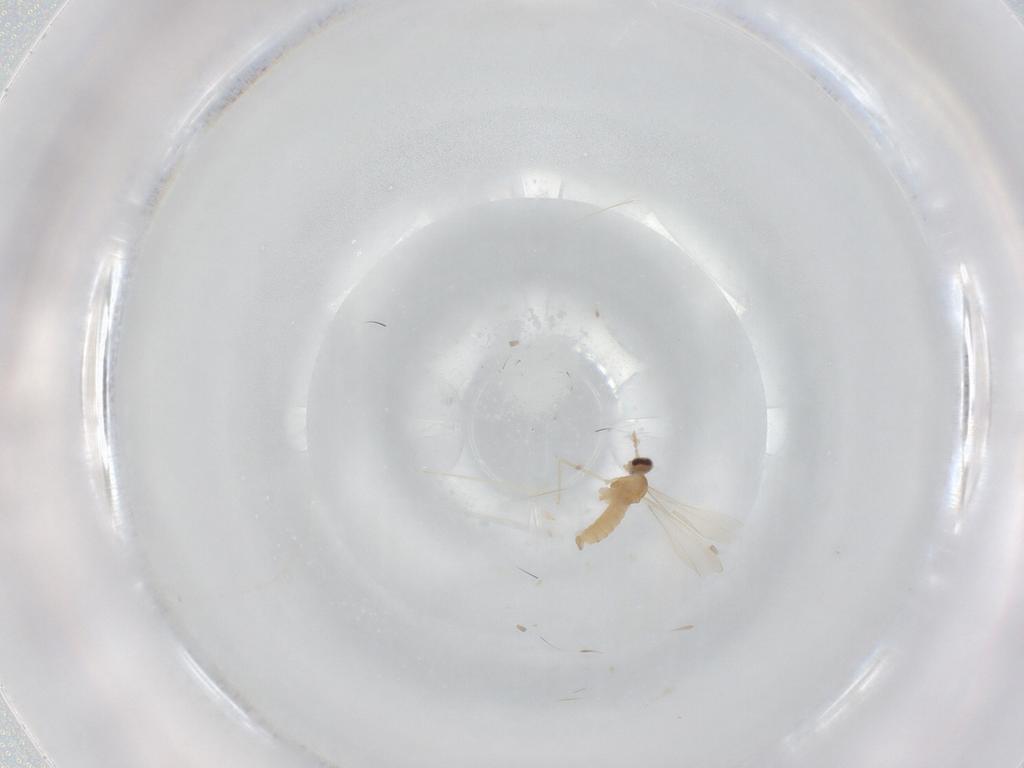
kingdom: Animalia
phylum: Arthropoda
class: Insecta
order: Diptera
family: Cecidomyiidae
